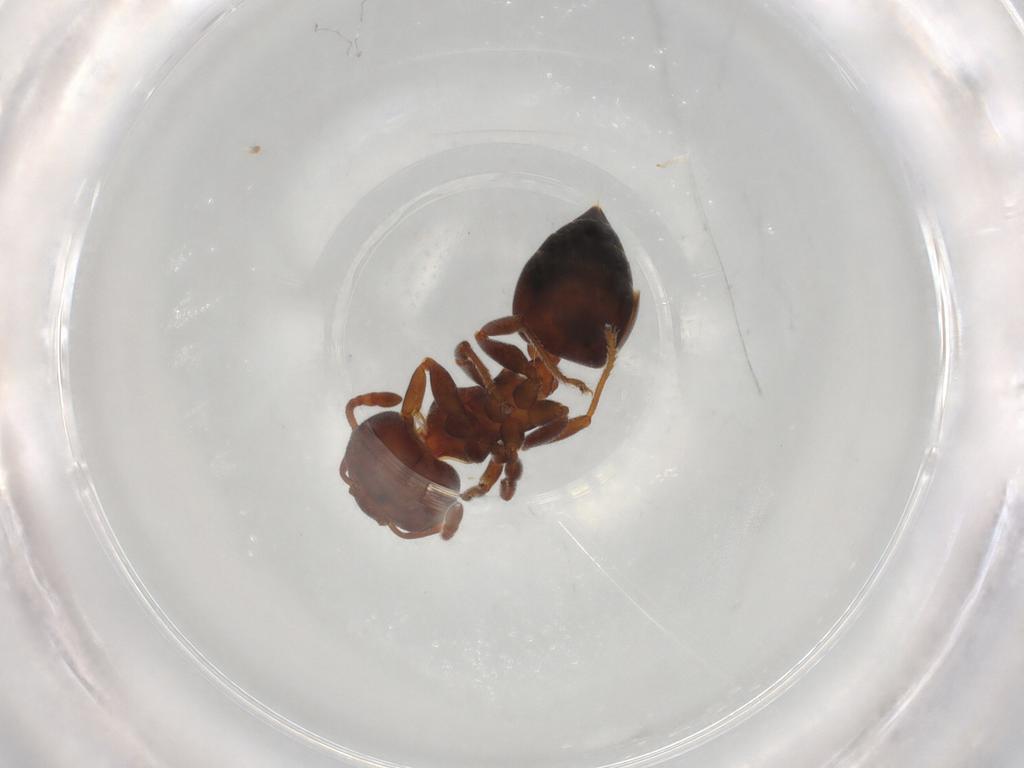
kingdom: Animalia
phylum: Arthropoda
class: Insecta
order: Hymenoptera
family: Formicidae
